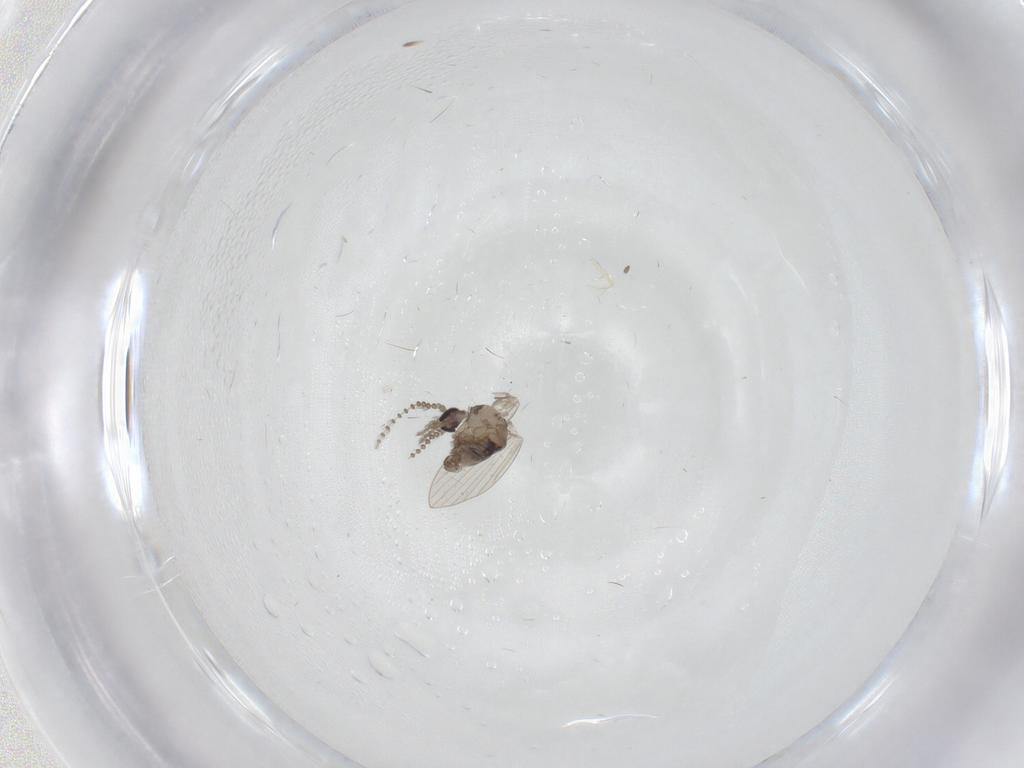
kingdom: Animalia
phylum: Arthropoda
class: Insecta
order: Diptera
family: Psychodidae
